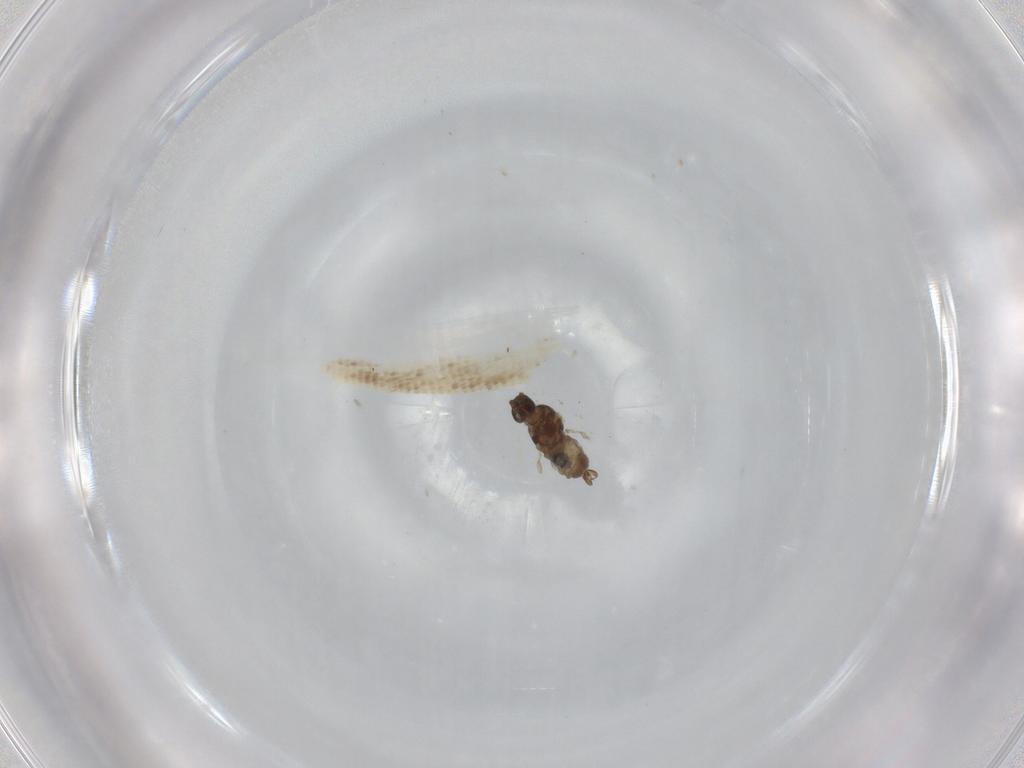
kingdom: Animalia
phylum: Arthropoda
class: Insecta
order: Diptera
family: Cecidomyiidae
